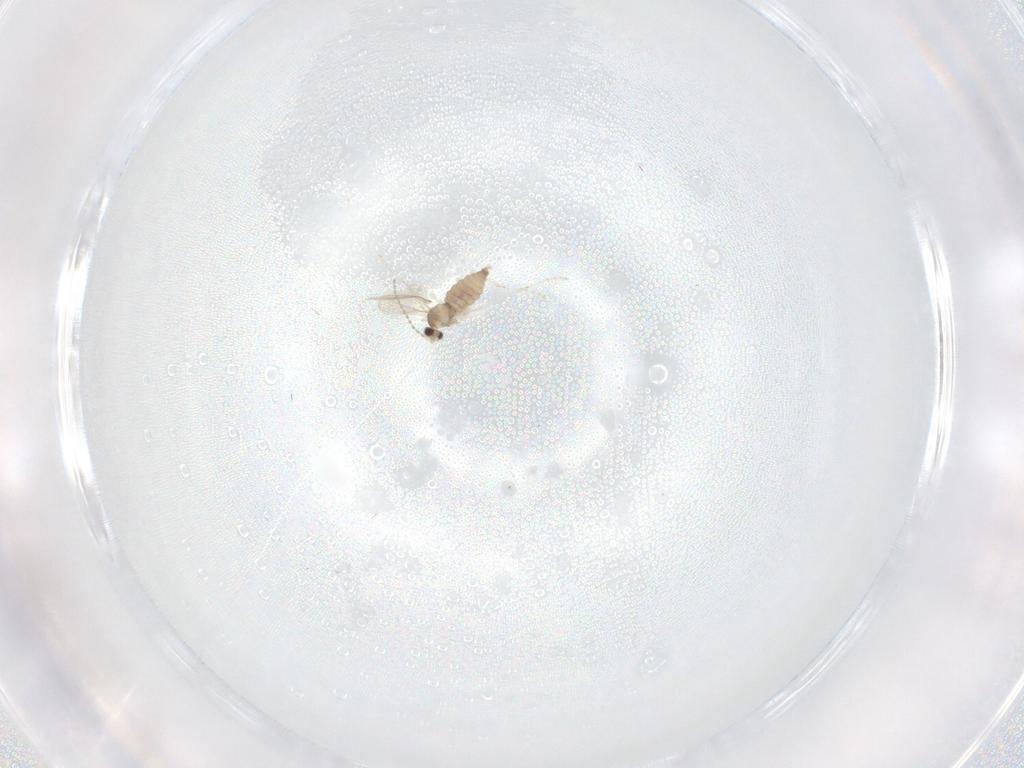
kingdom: Animalia
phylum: Arthropoda
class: Insecta
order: Diptera
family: Cecidomyiidae
